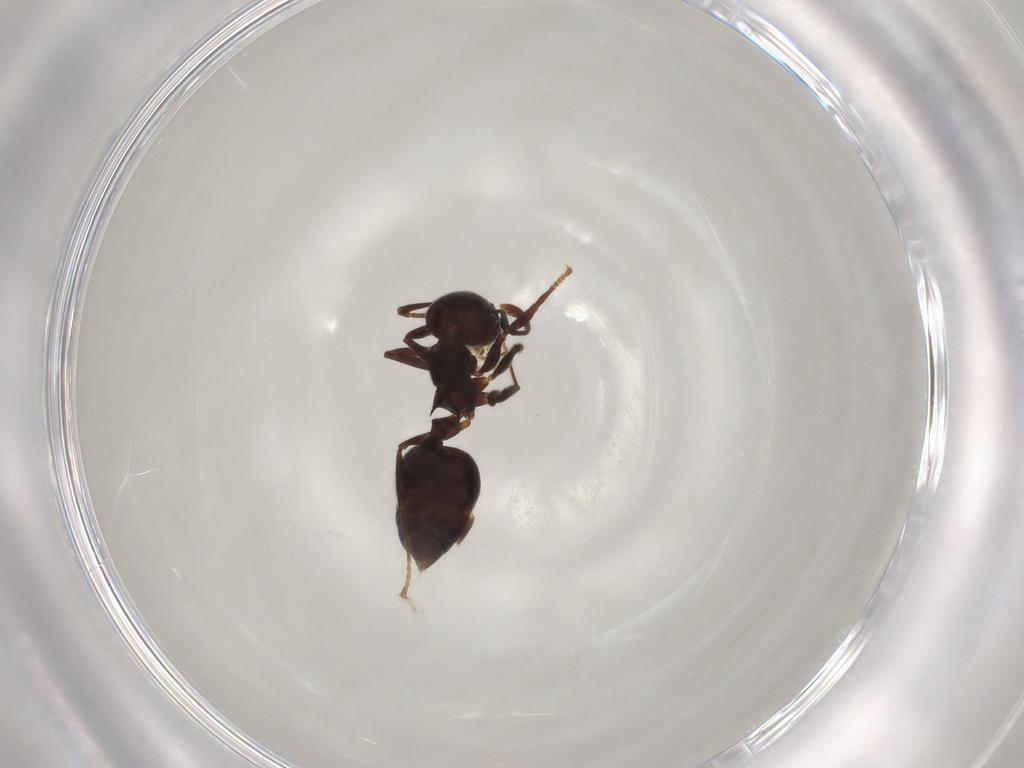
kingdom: Animalia
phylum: Arthropoda
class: Insecta
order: Hymenoptera
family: Formicidae
